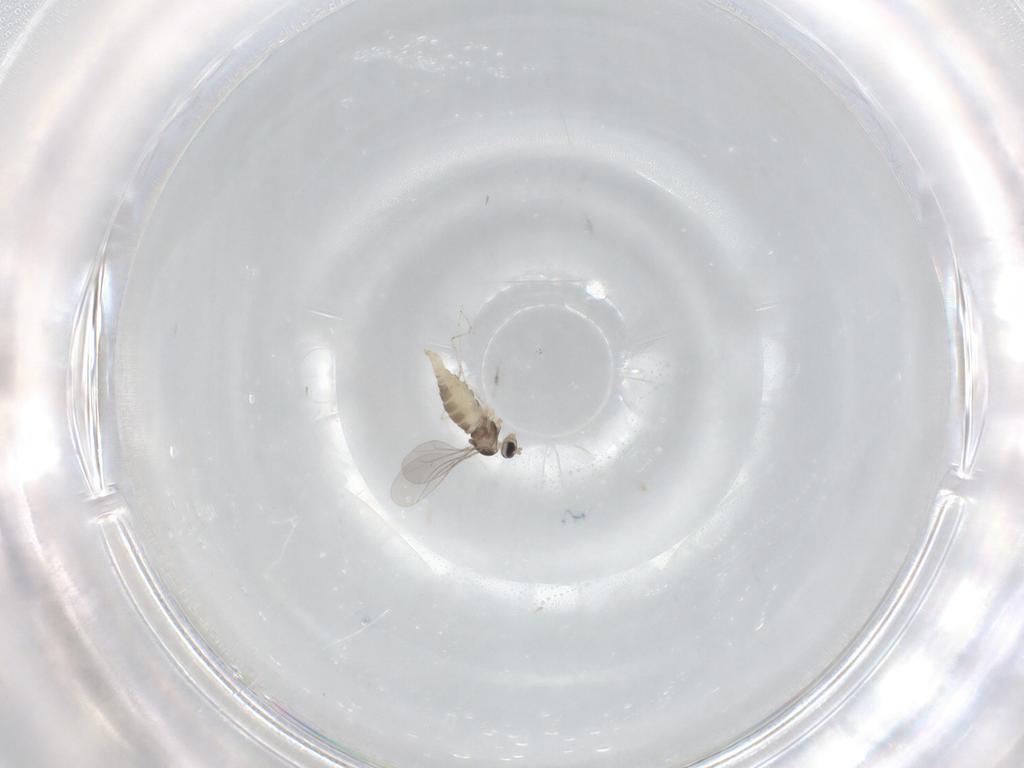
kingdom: Animalia
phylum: Arthropoda
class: Insecta
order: Diptera
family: Cecidomyiidae
